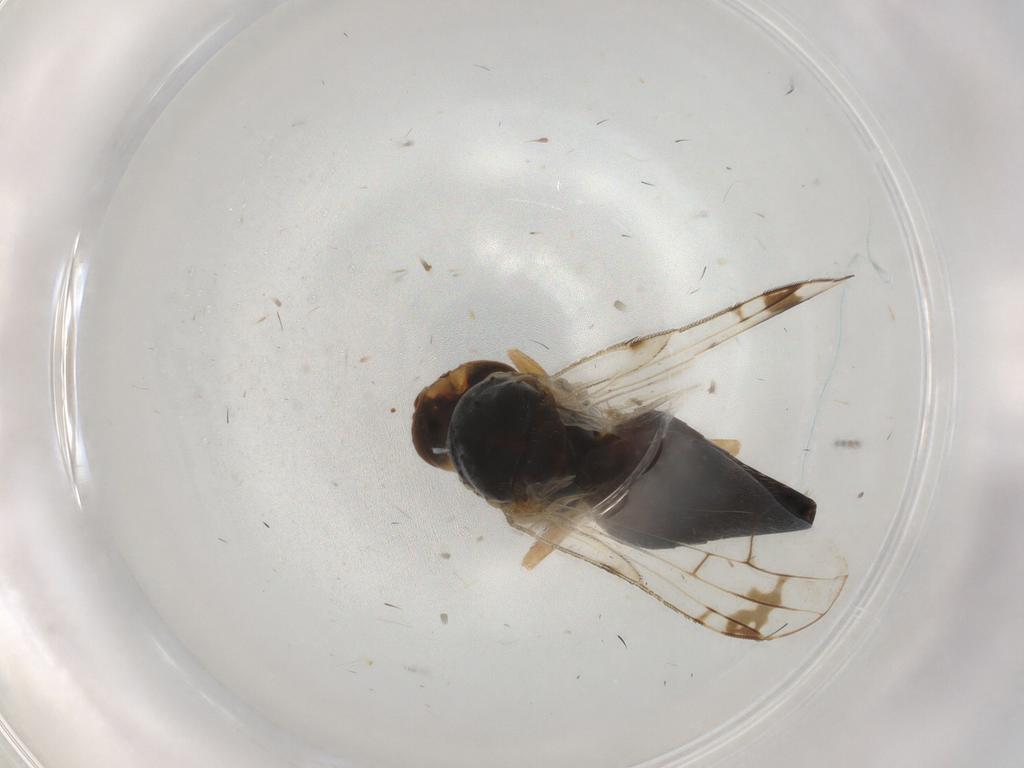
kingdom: Animalia
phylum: Arthropoda
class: Insecta
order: Diptera
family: Tephritidae
